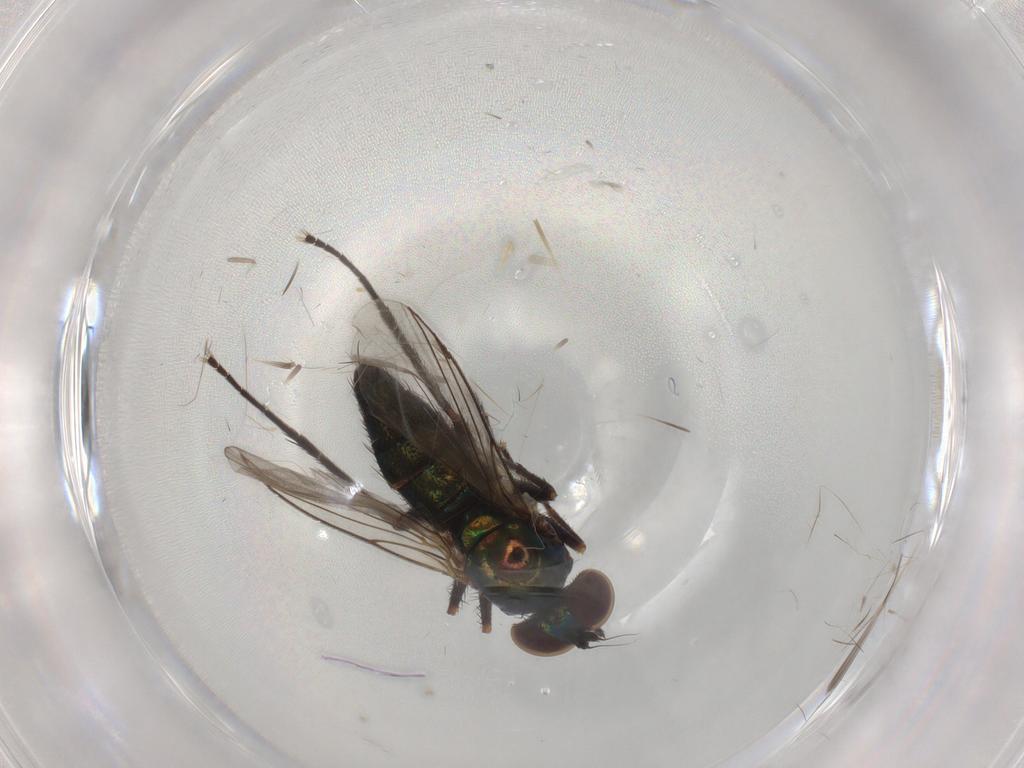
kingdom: Animalia
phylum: Arthropoda
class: Insecta
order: Diptera
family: Dolichopodidae
